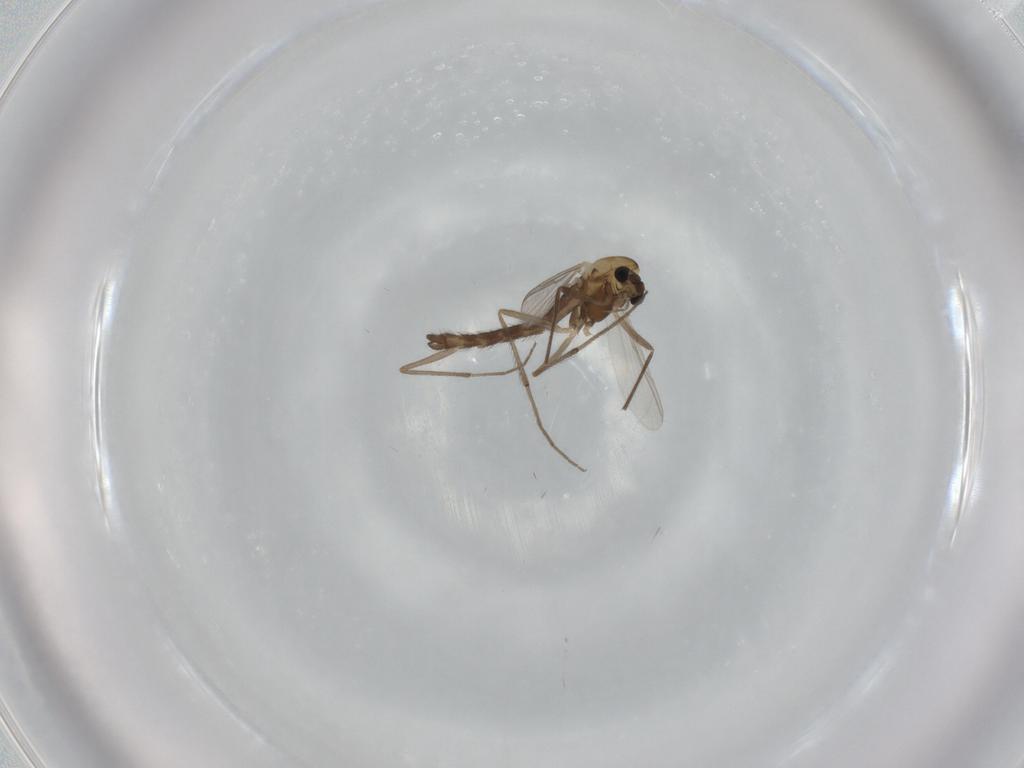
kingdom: Animalia
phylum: Arthropoda
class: Insecta
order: Diptera
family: Chironomidae
